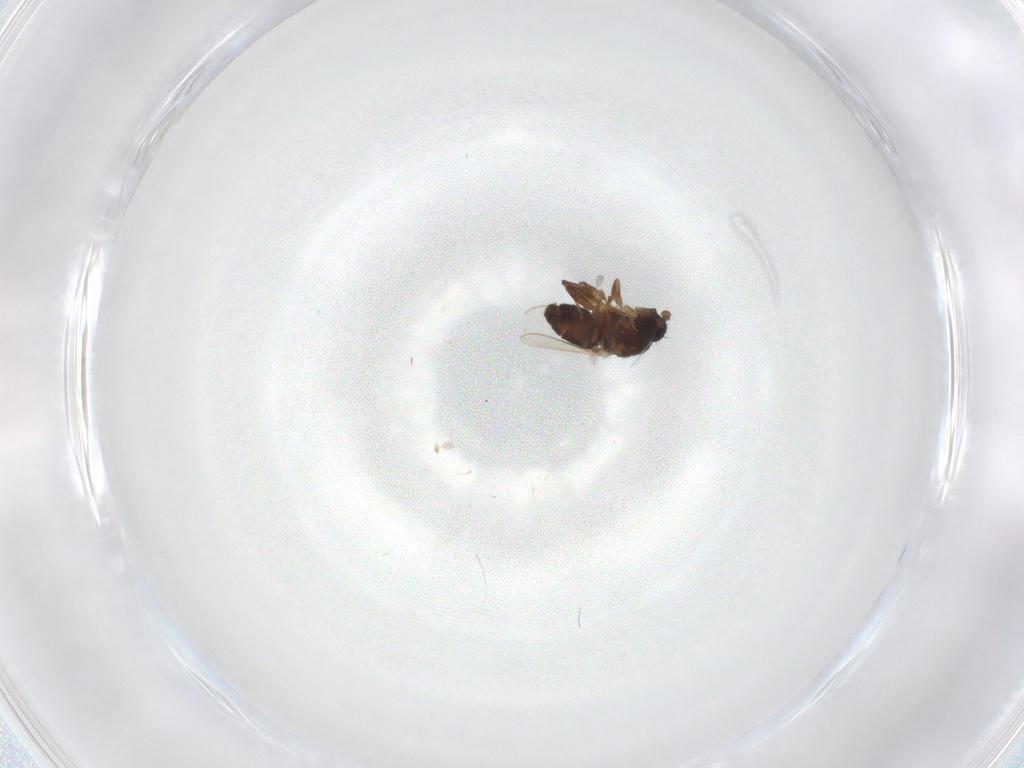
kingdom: Animalia
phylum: Arthropoda
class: Insecta
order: Diptera
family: Sphaeroceridae
